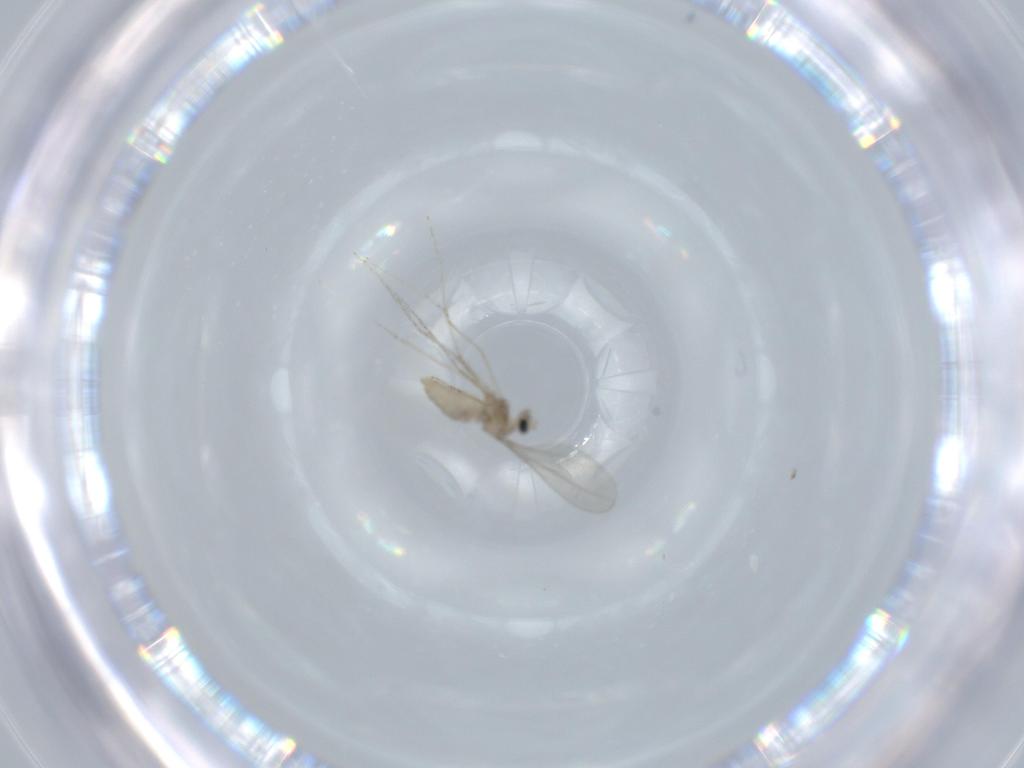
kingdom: Animalia
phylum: Arthropoda
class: Insecta
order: Diptera
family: Cecidomyiidae
